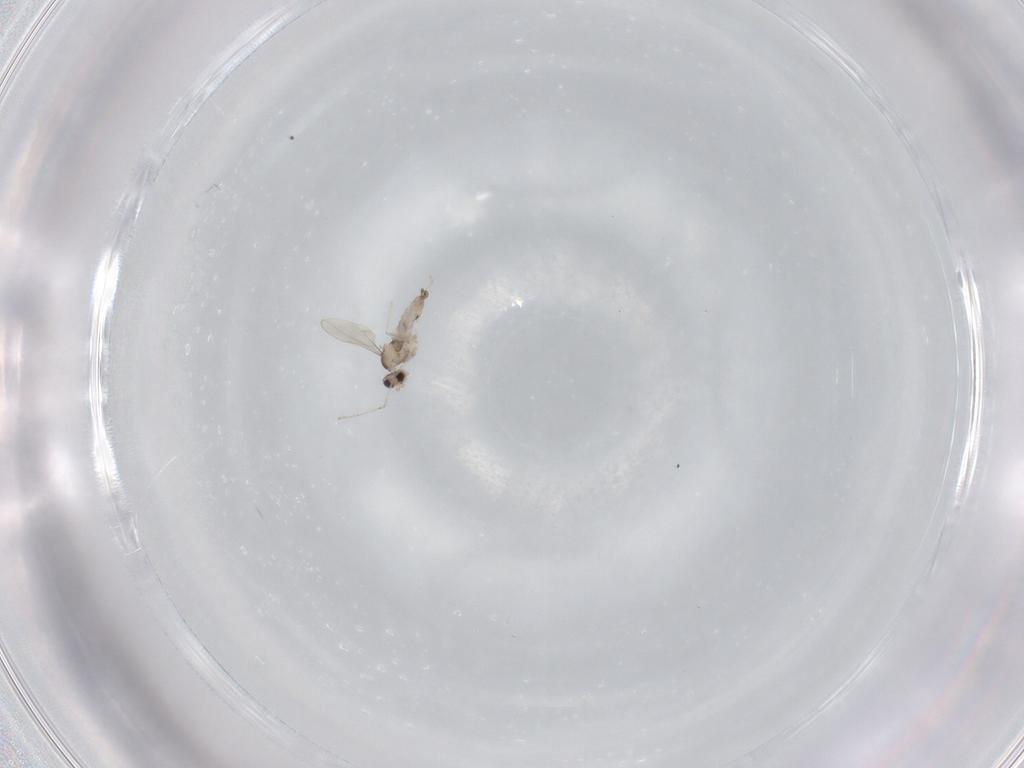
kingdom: Animalia
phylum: Arthropoda
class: Insecta
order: Diptera
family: Cecidomyiidae
